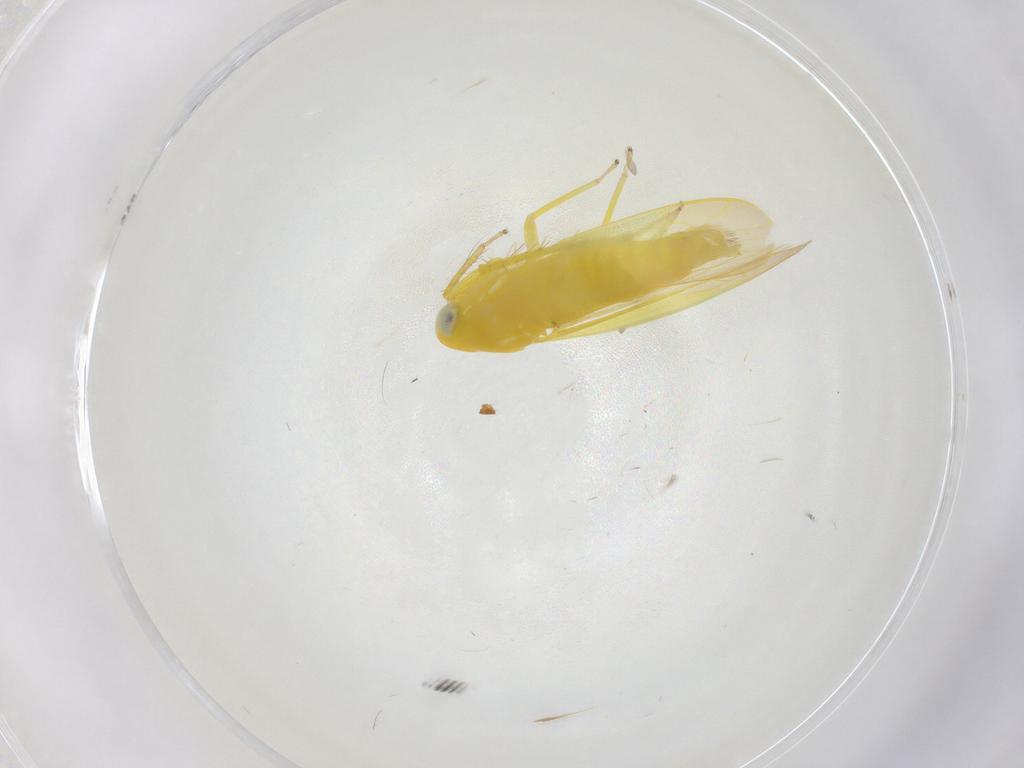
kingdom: Animalia
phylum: Arthropoda
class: Insecta
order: Hemiptera
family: Cicadellidae
